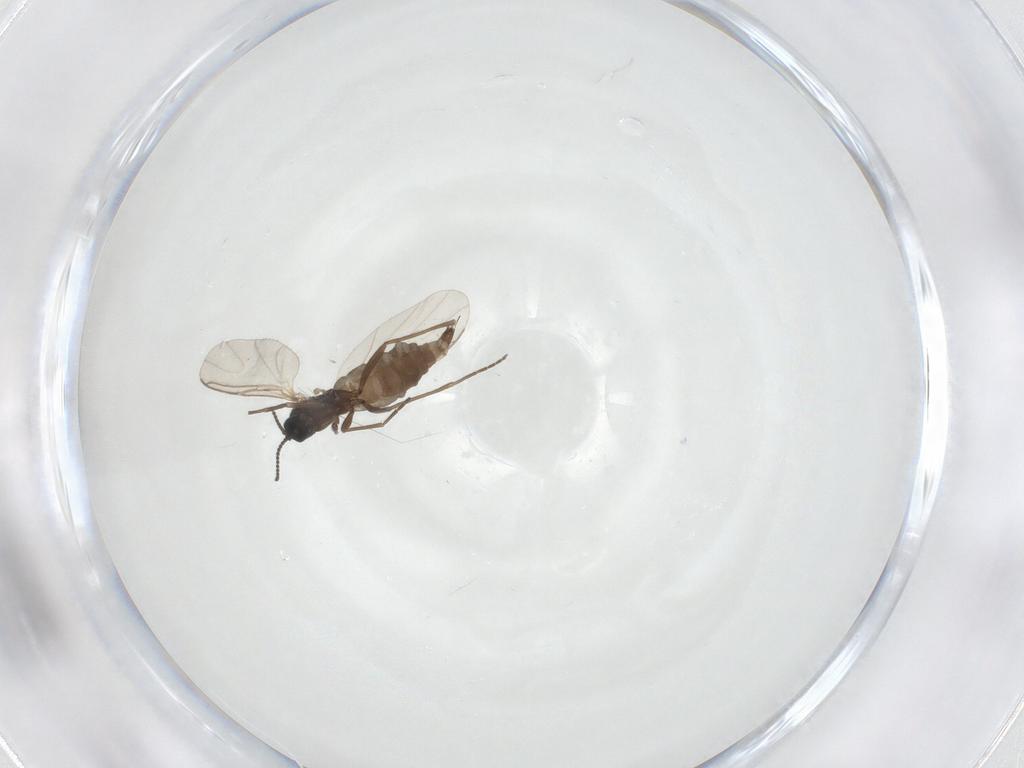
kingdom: Animalia
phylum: Arthropoda
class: Insecta
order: Diptera
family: Sciaridae
